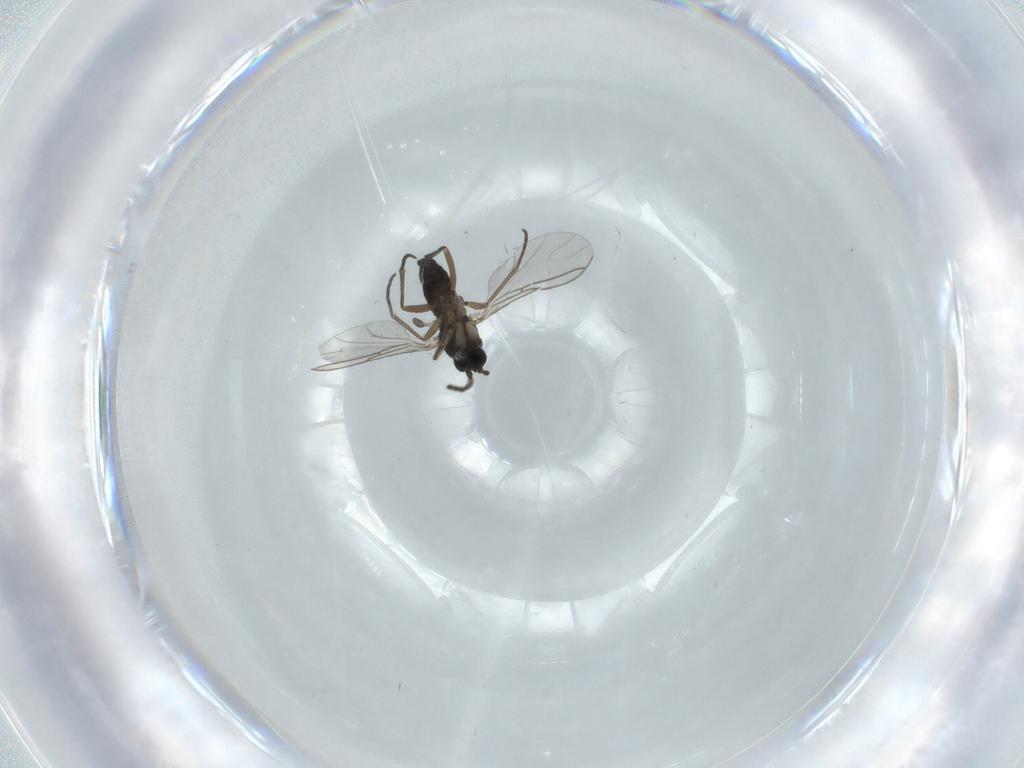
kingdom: Animalia
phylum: Arthropoda
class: Insecta
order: Diptera
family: Sciaridae
